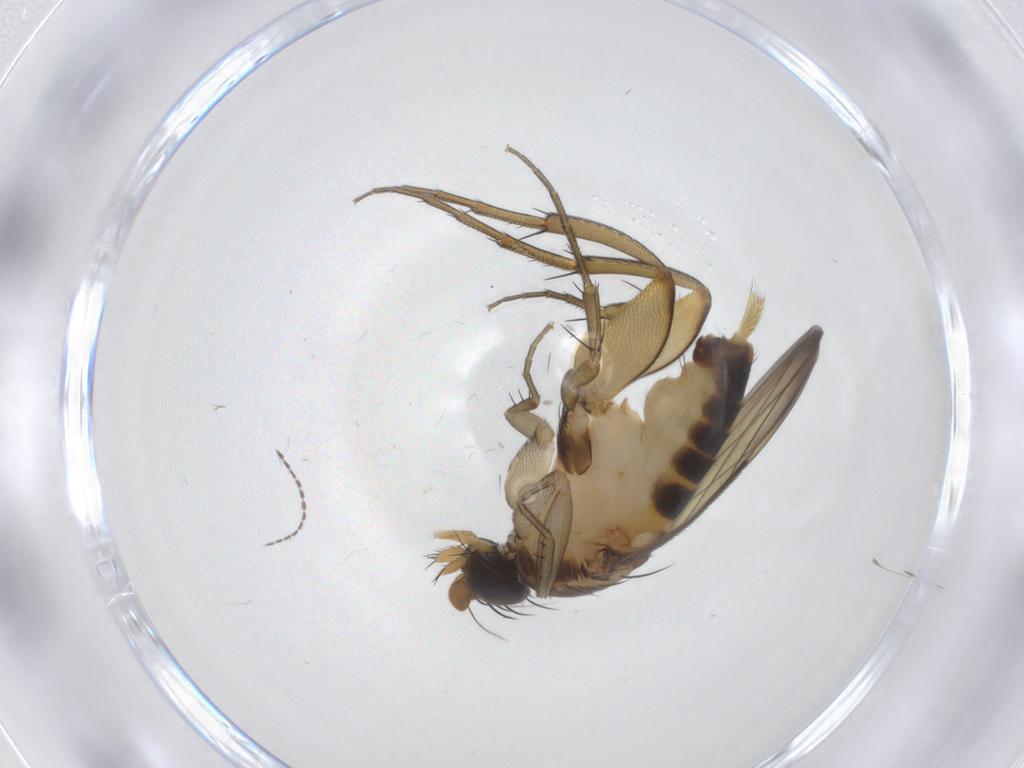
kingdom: Animalia
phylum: Arthropoda
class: Insecta
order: Diptera
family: Phoridae
